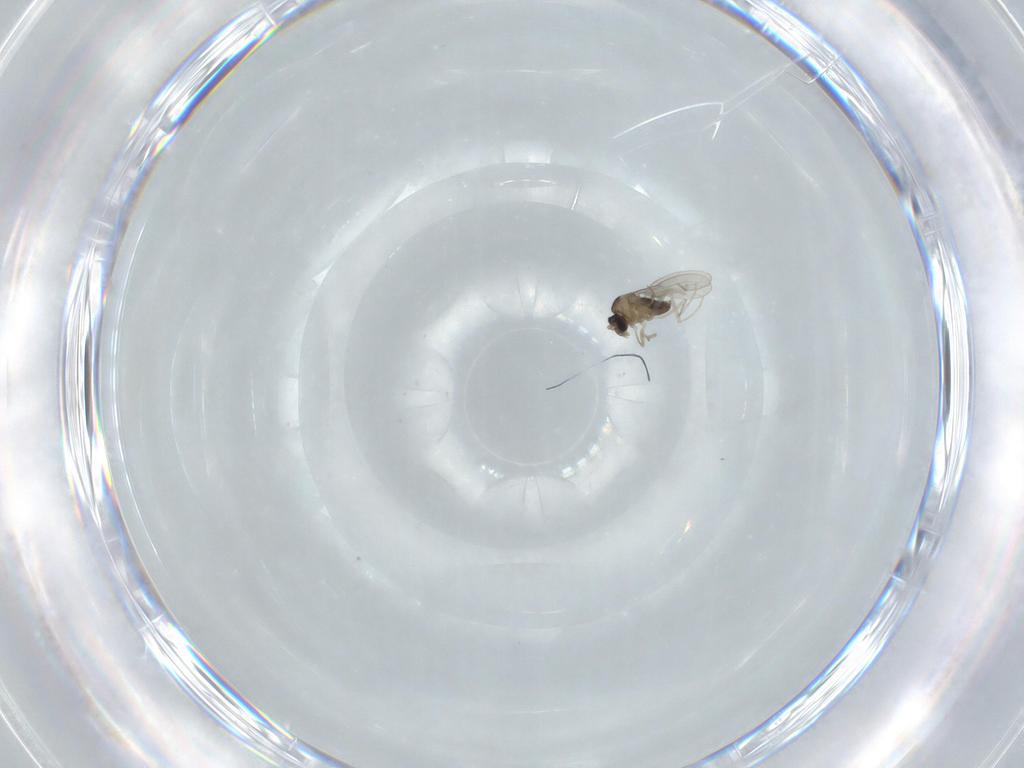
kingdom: Animalia
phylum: Arthropoda
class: Insecta
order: Diptera
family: Cecidomyiidae
